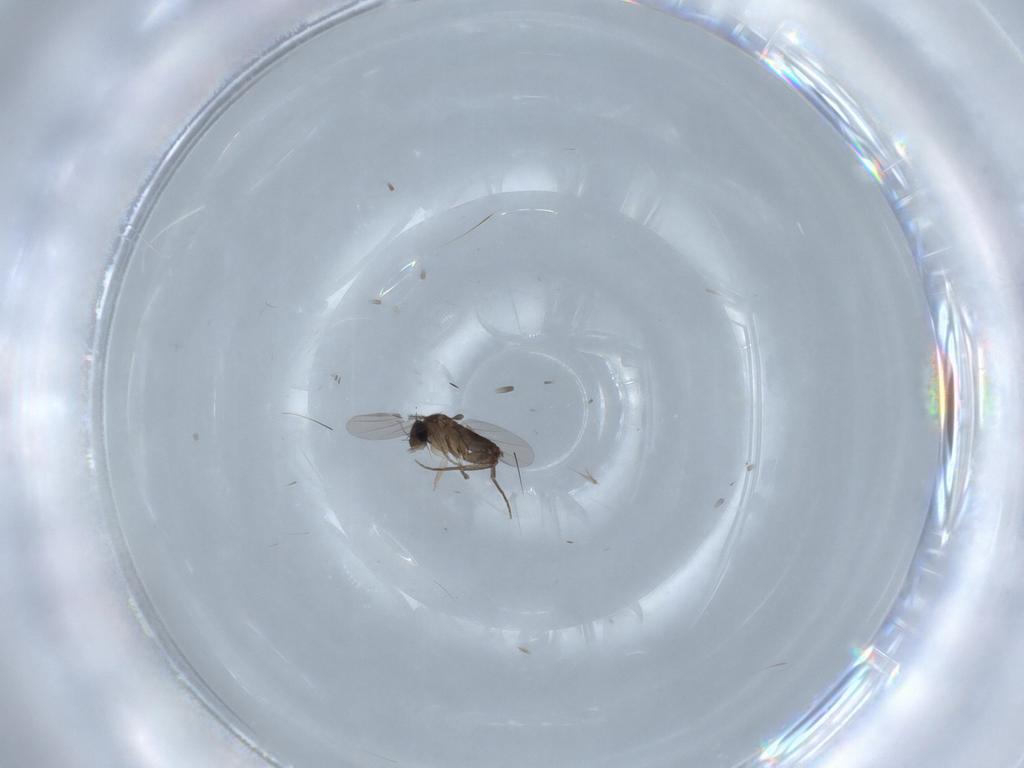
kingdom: Animalia
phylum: Arthropoda
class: Insecta
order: Diptera
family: Phoridae
